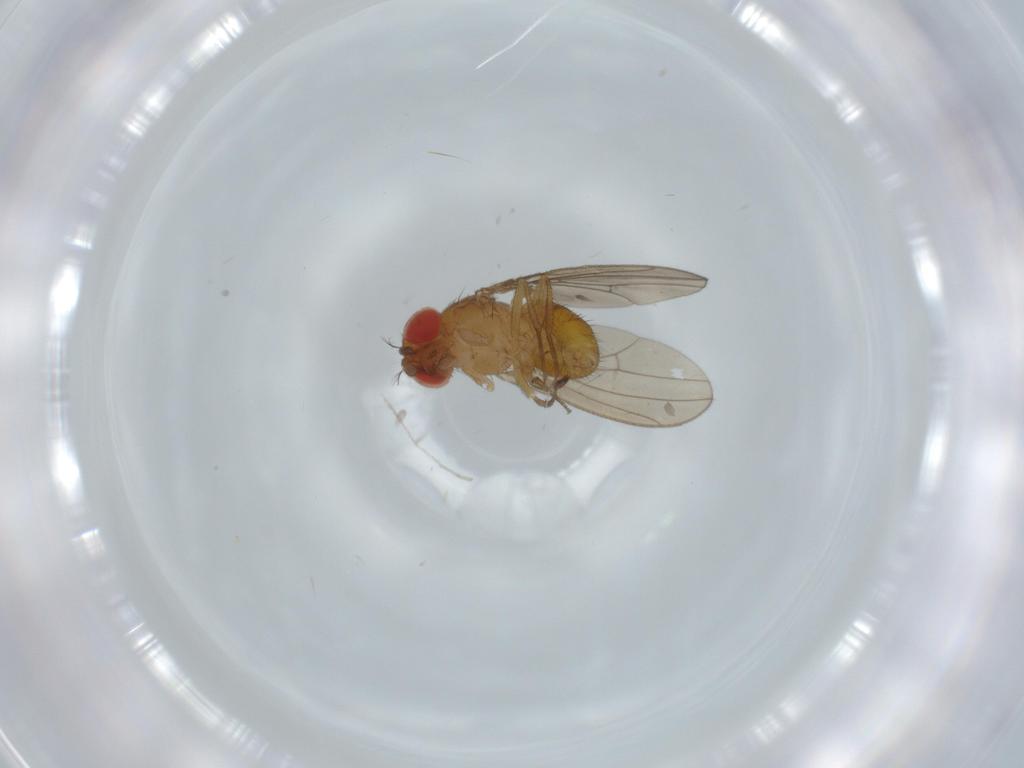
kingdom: Animalia
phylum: Arthropoda
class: Insecta
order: Diptera
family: Drosophilidae
